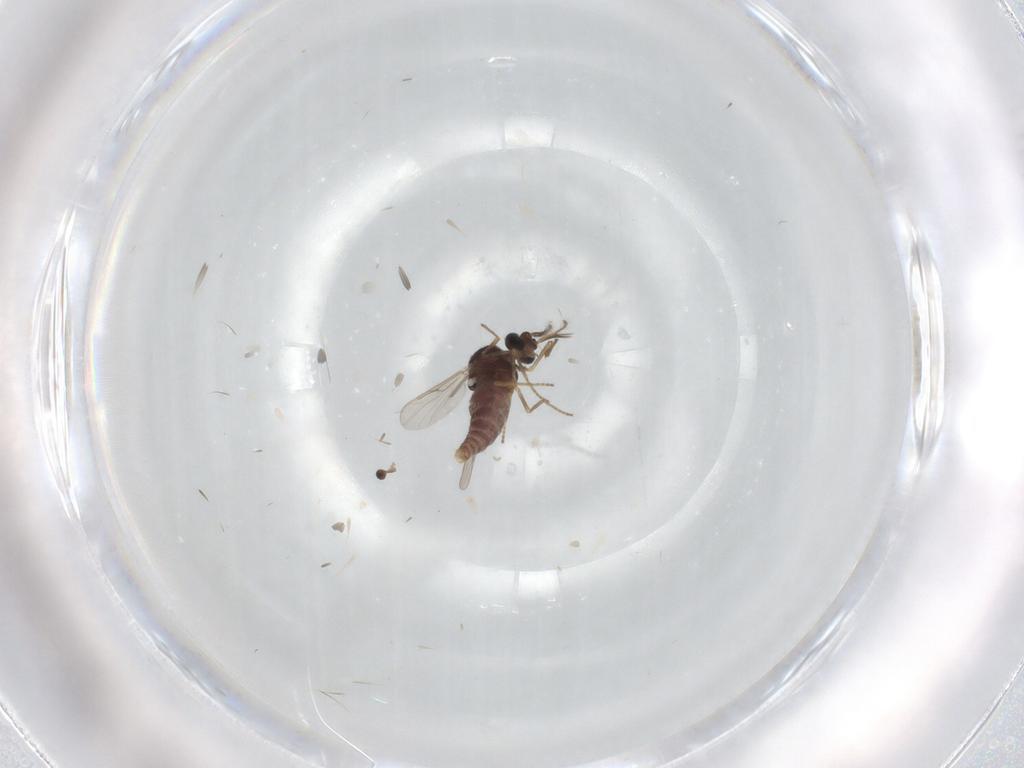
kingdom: Animalia
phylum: Arthropoda
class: Insecta
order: Diptera
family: Ceratopogonidae
